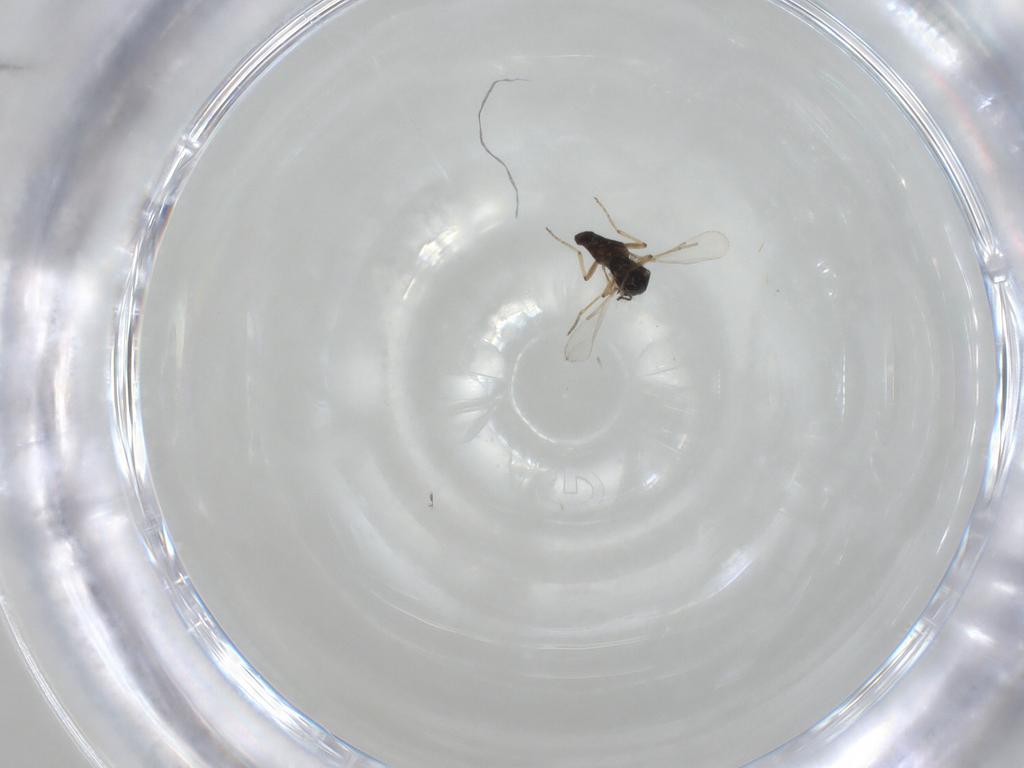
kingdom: Animalia
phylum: Arthropoda
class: Insecta
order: Diptera
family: Ceratopogonidae
